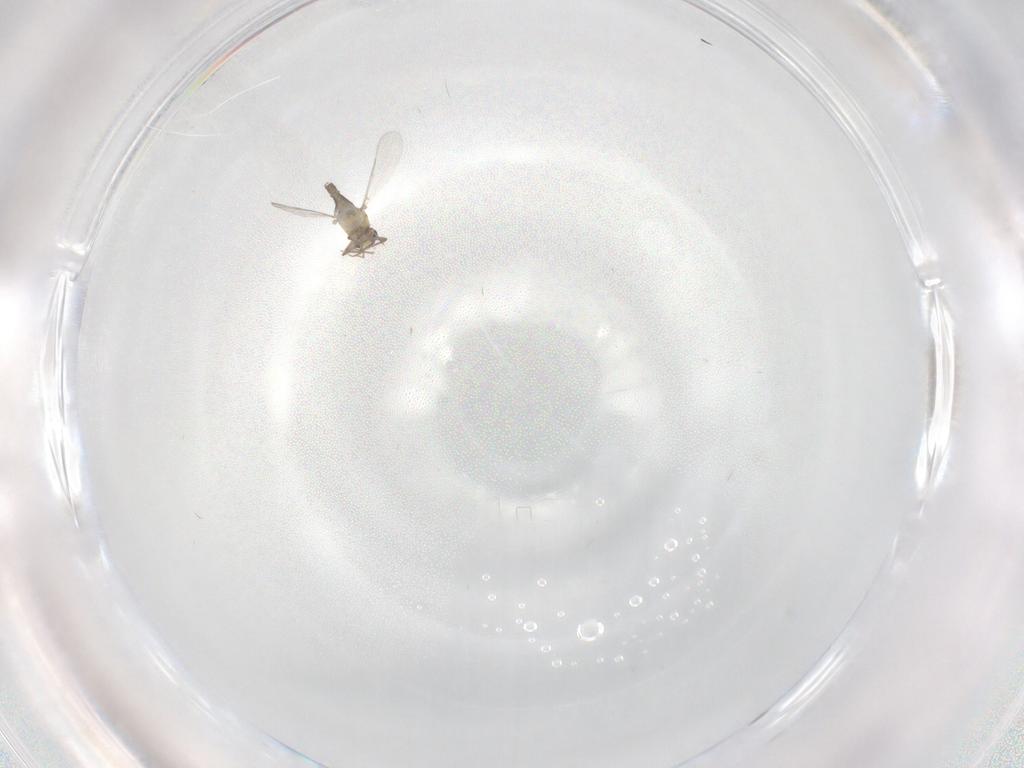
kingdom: Animalia
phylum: Arthropoda
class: Insecta
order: Diptera
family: Chironomidae
